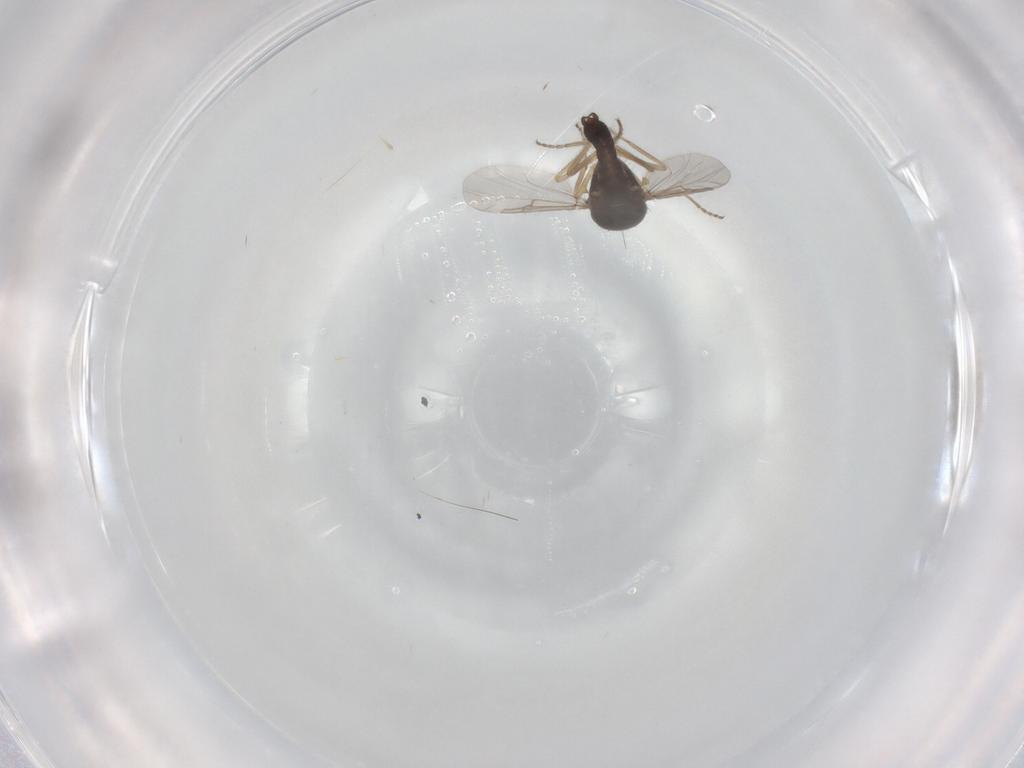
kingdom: Animalia
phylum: Arthropoda
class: Insecta
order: Diptera
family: Ceratopogonidae
